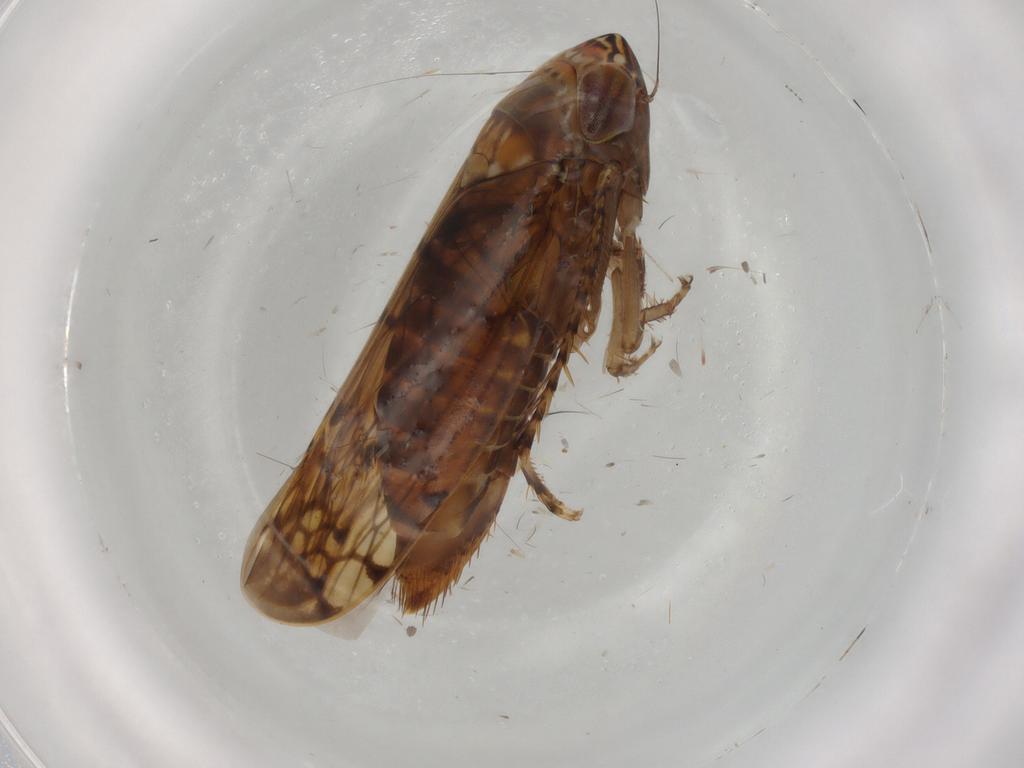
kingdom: Animalia
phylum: Arthropoda
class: Insecta
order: Hemiptera
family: Cicadellidae
